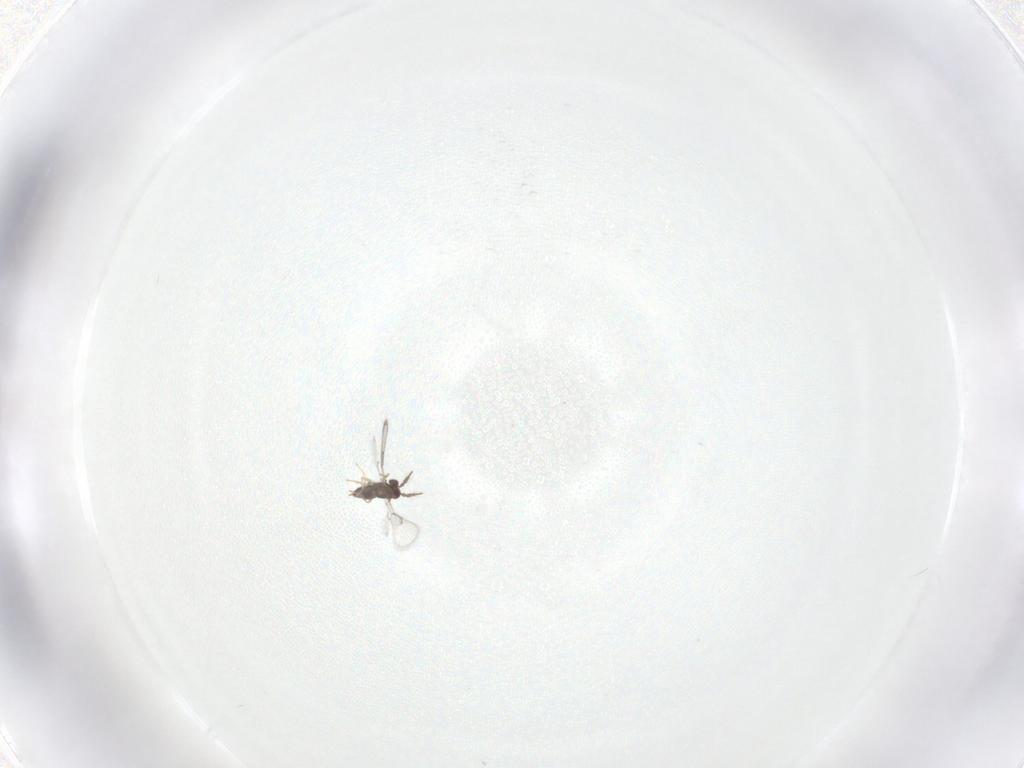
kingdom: Animalia
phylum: Arthropoda
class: Insecta
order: Hymenoptera
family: Trichogrammatidae
